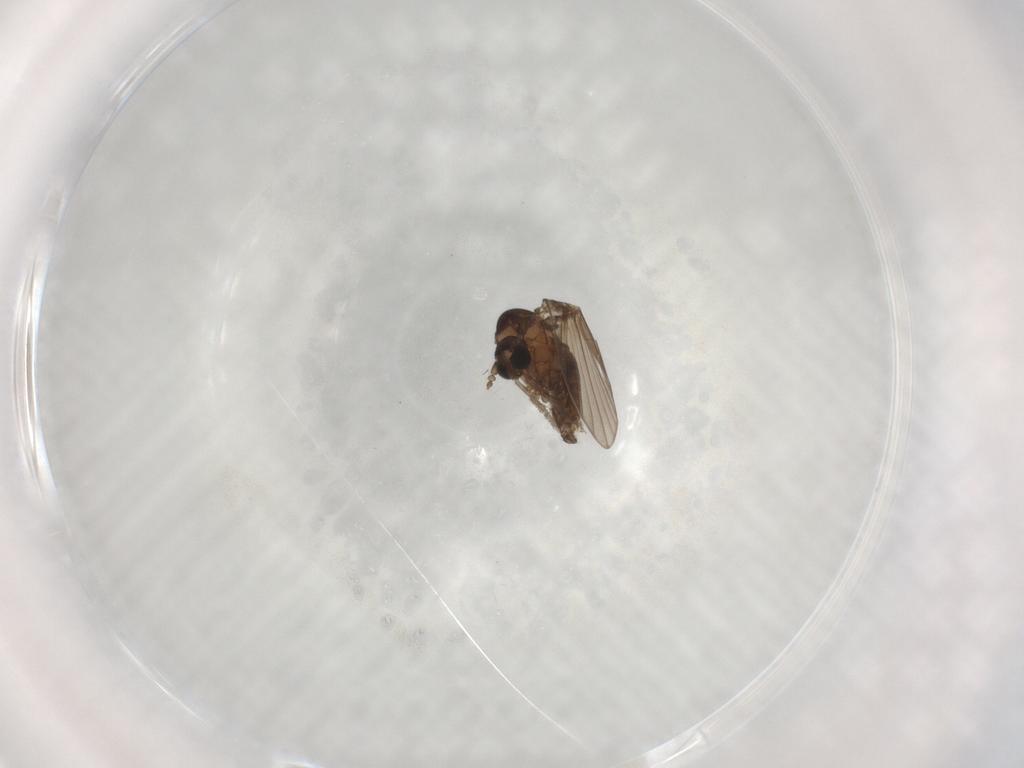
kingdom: Animalia
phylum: Arthropoda
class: Insecta
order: Diptera
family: Psychodidae
